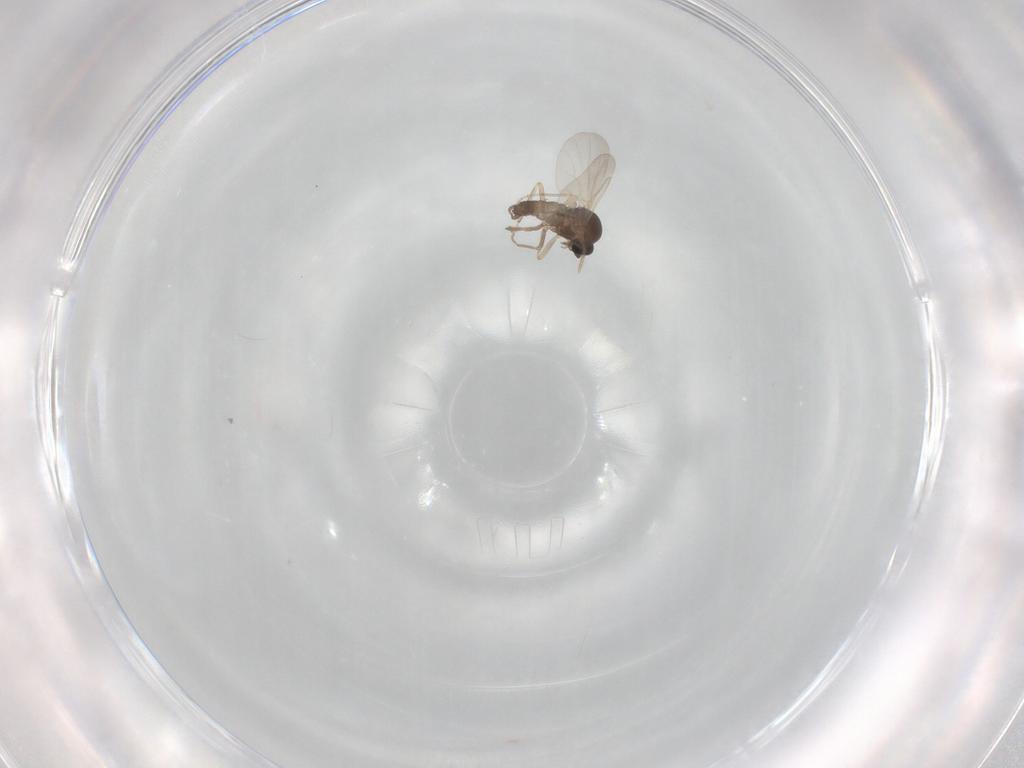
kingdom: Animalia
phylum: Arthropoda
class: Insecta
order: Diptera
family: Ceratopogonidae
